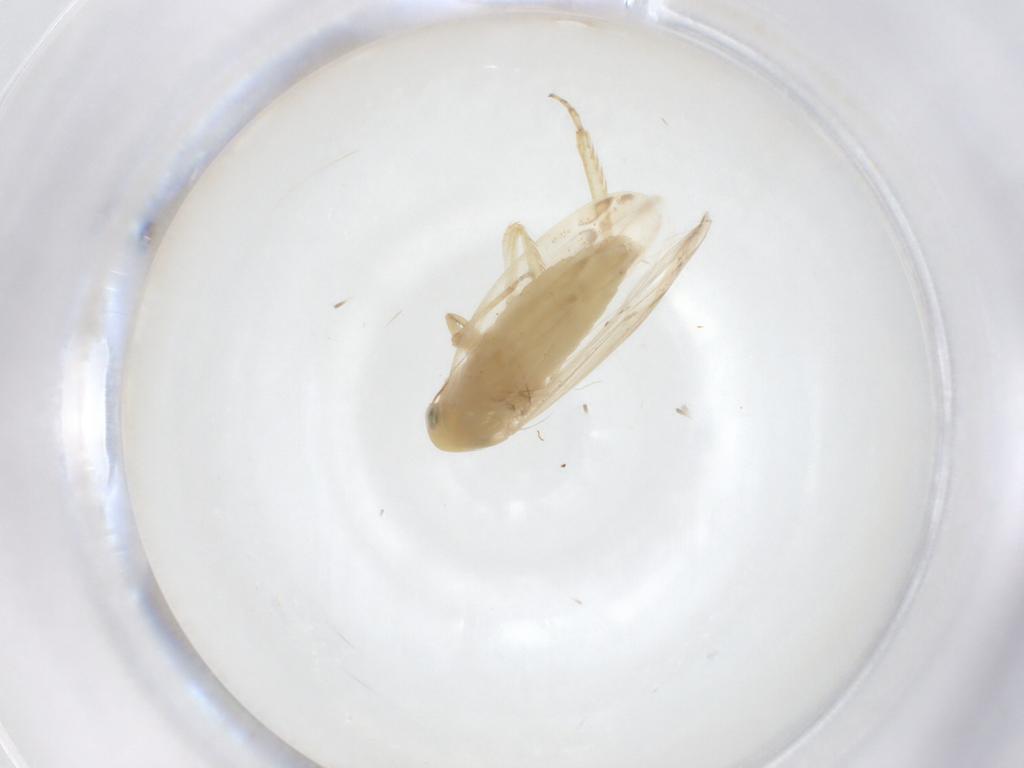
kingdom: Animalia
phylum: Arthropoda
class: Insecta
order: Hemiptera
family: Cicadellidae
